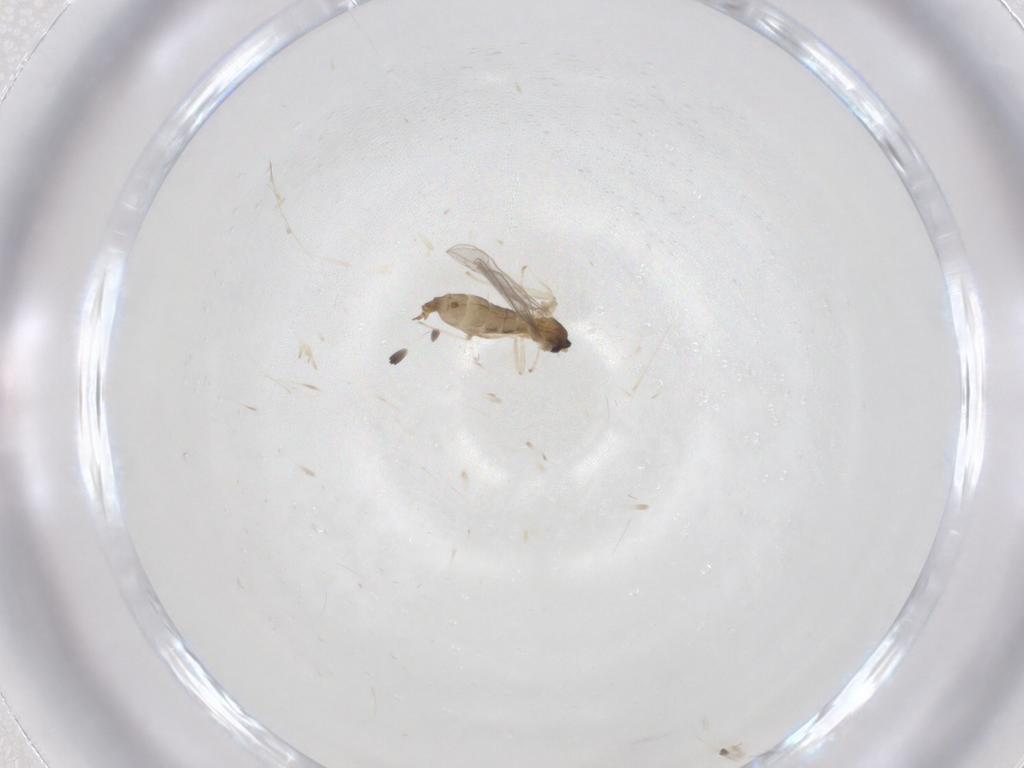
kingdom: Animalia
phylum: Arthropoda
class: Insecta
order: Diptera
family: Cecidomyiidae
